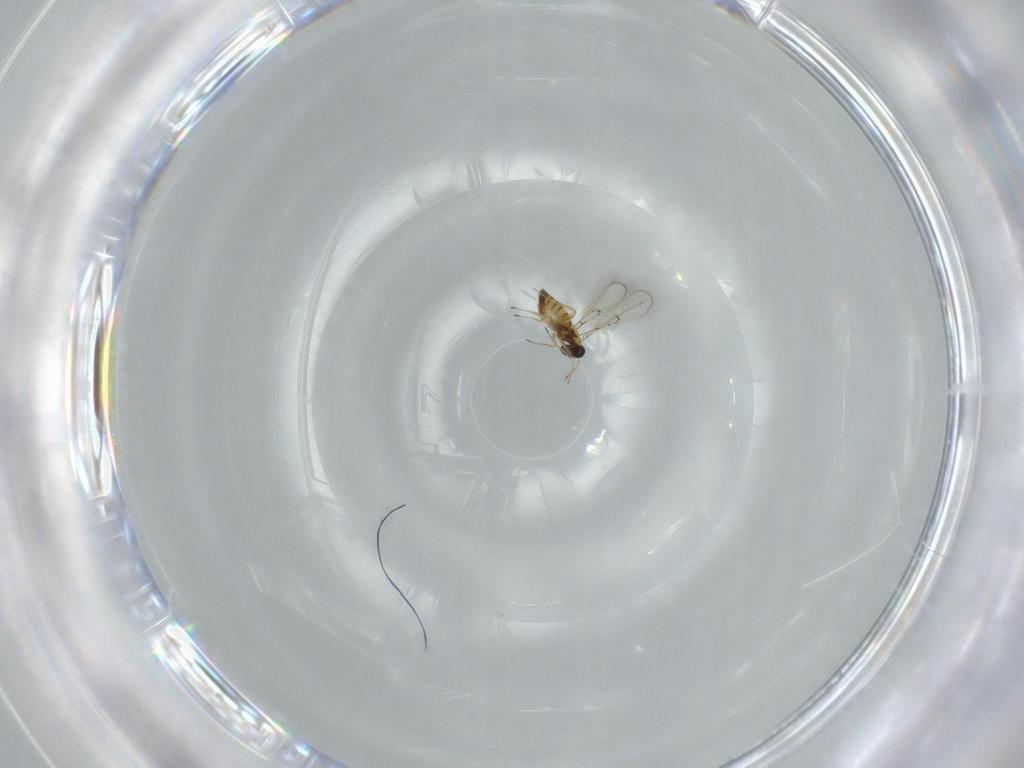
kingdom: Animalia
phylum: Arthropoda
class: Insecta
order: Hymenoptera
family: Trichogrammatidae
